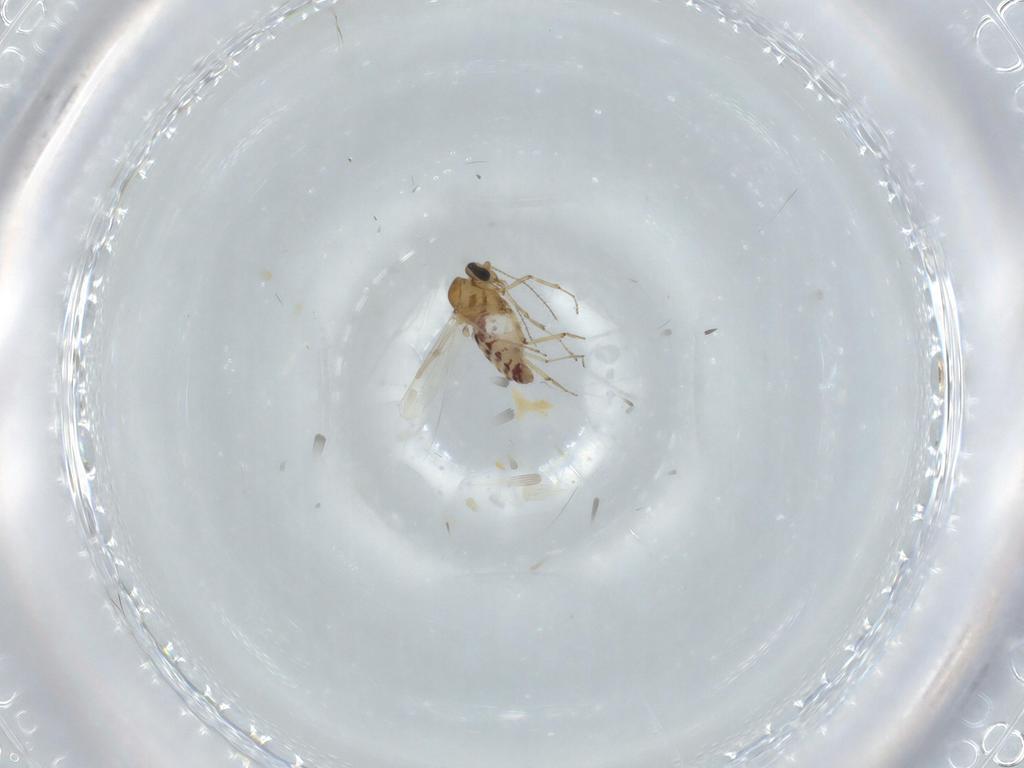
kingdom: Animalia
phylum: Arthropoda
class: Insecta
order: Diptera
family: Ceratopogonidae
